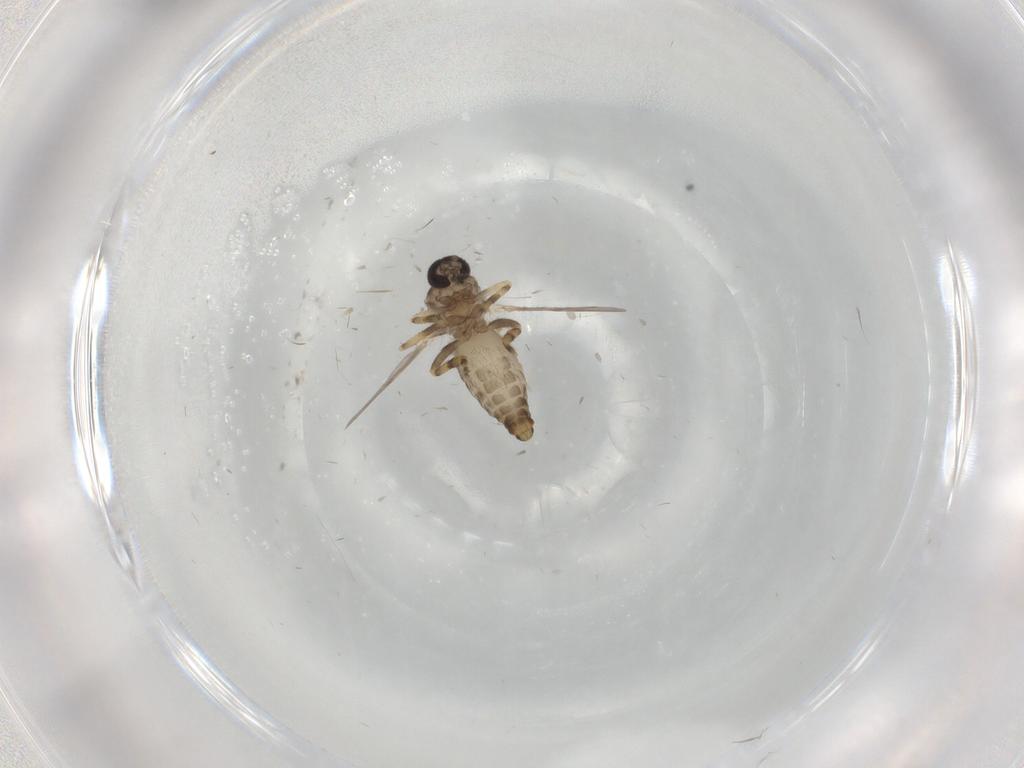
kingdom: Animalia
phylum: Arthropoda
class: Insecta
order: Diptera
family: Ceratopogonidae
